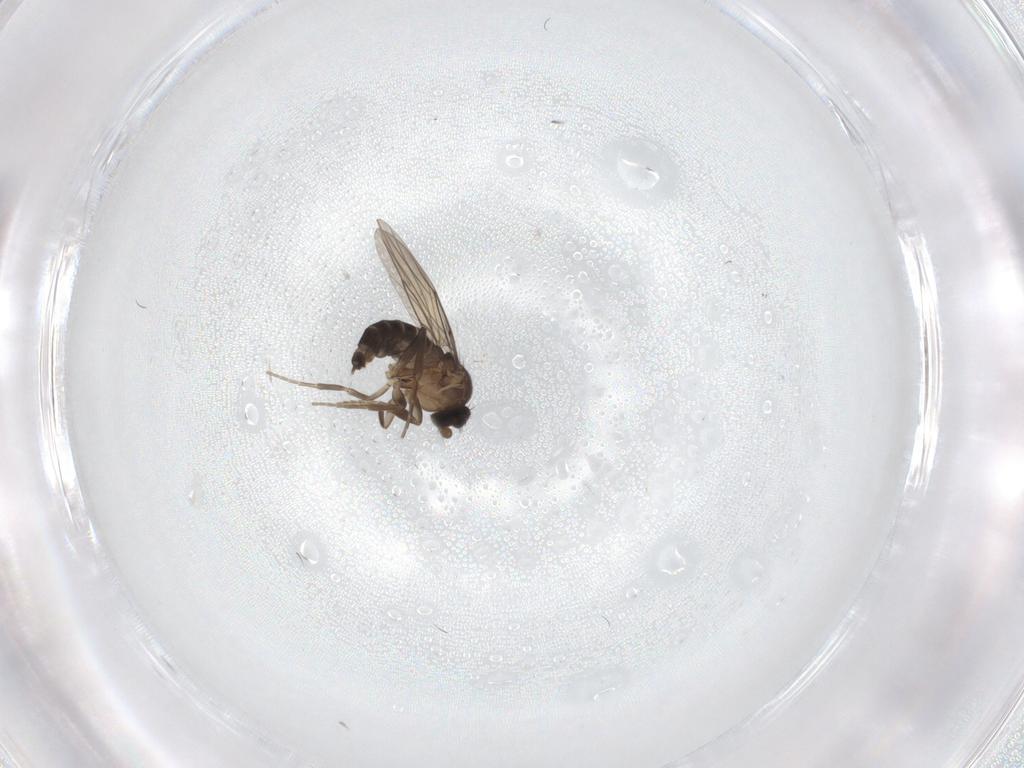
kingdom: Animalia
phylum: Arthropoda
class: Insecta
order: Diptera
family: Phoridae
